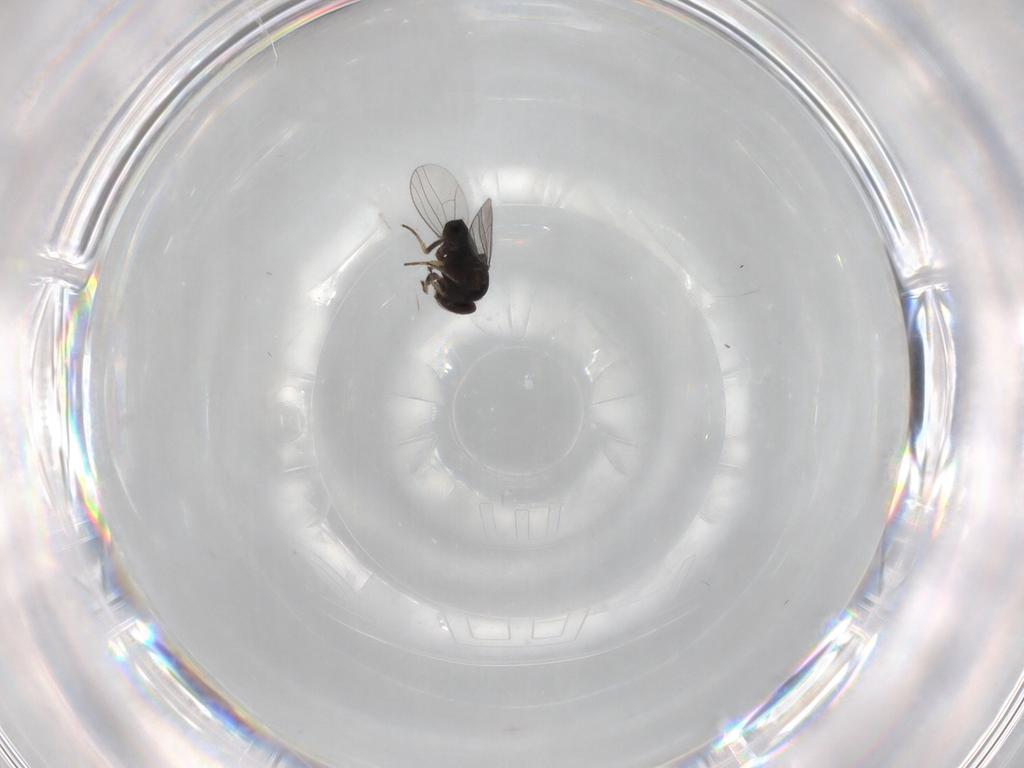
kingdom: Animalia
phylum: Arthropoda
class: Insecta
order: Diptera
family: Dolichopodidae
